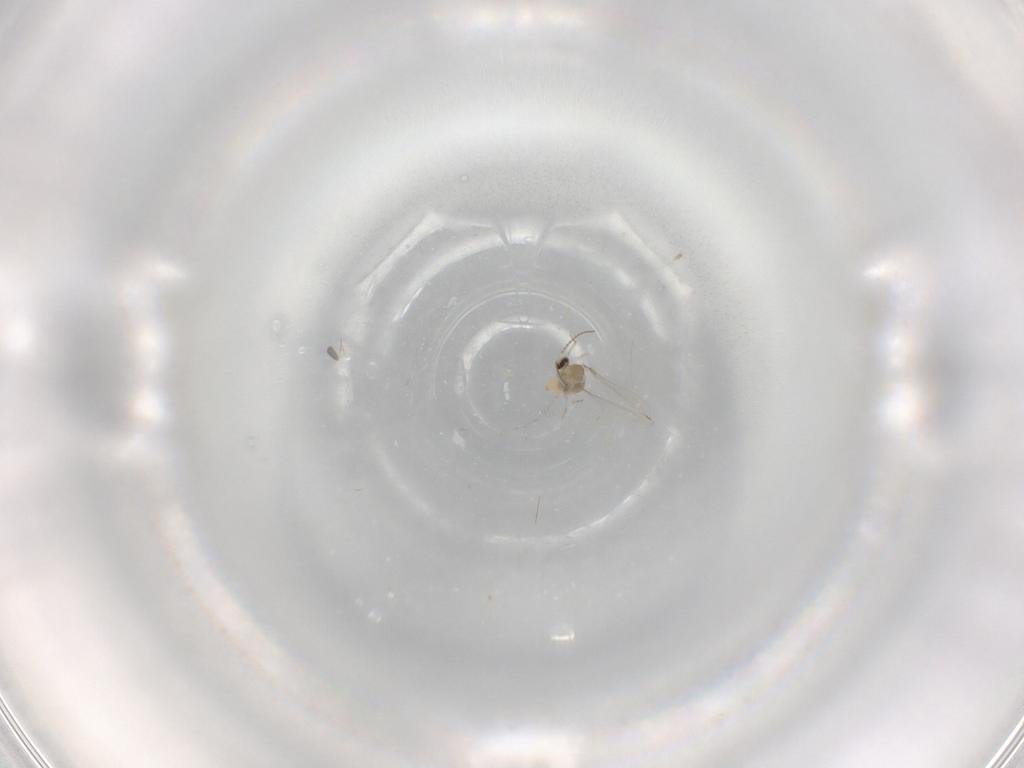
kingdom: Animalia
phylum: Arthropoda
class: Insecta
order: Diptera
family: Cecidomyiidae
